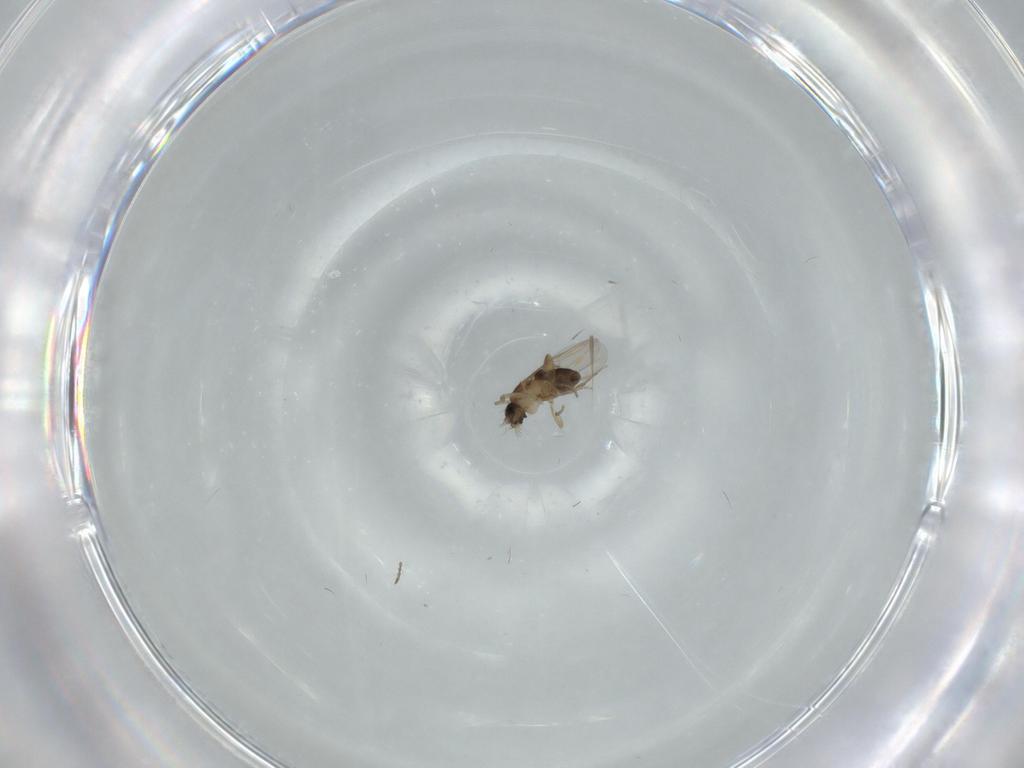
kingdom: Animalia
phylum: Arthropoda
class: Insecta
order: Diptera
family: Phoridae
